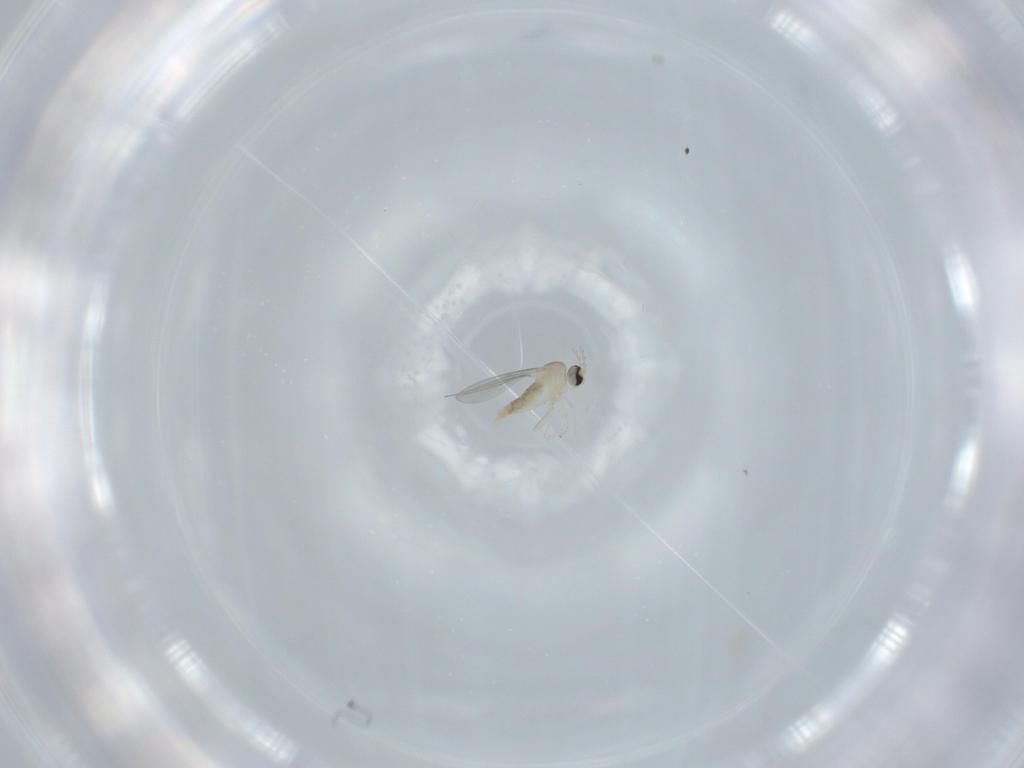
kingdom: Animalia
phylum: Arthropoda
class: Insecta
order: Diptera
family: Cecidomyiidae
